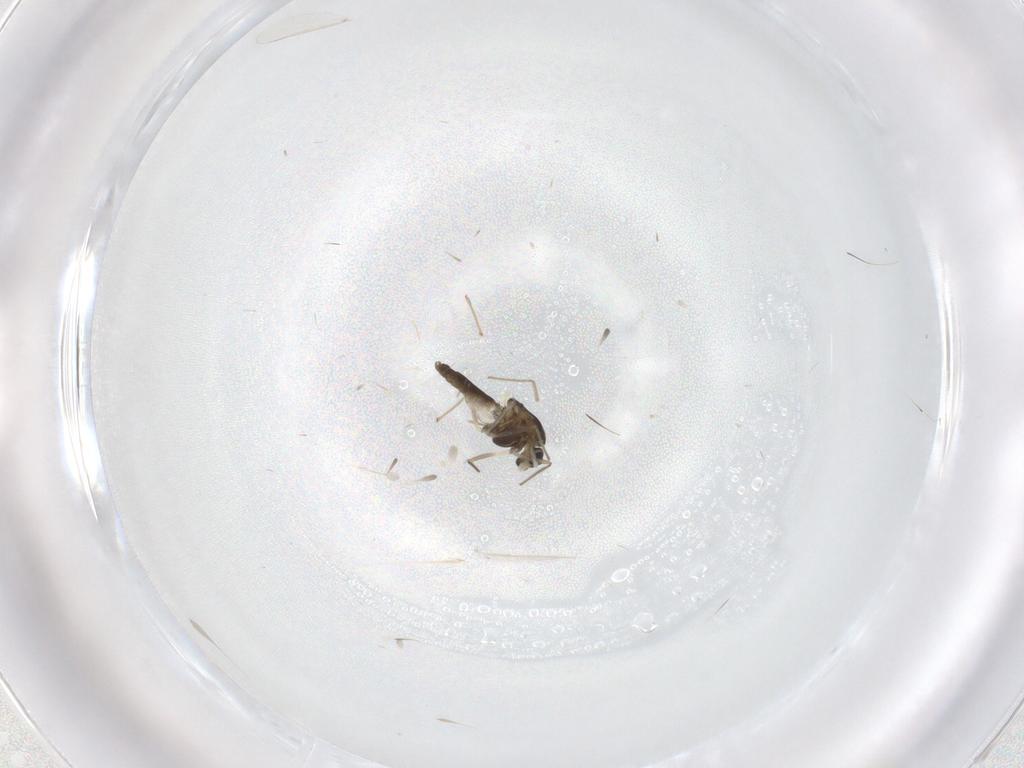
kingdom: Animalia
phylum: Arthropoda
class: Insecta
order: Diptera
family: Chironomidae
